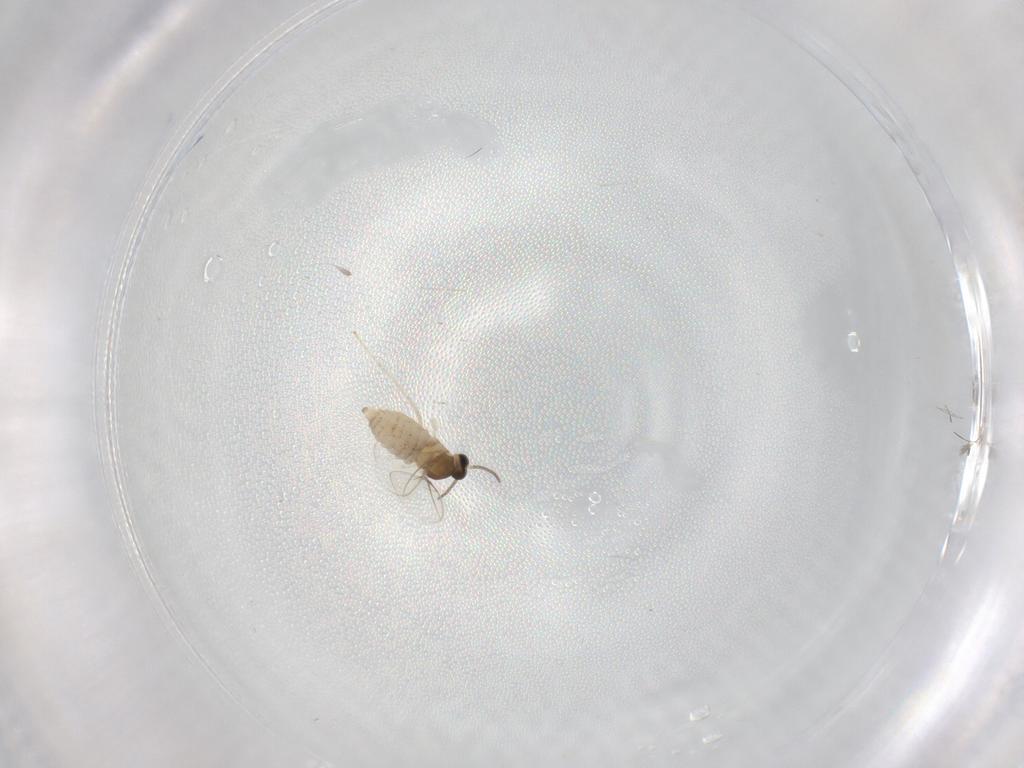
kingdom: Animalia
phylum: Arthropoda
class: Insecta
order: Diptera
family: Cecidomyiidae
